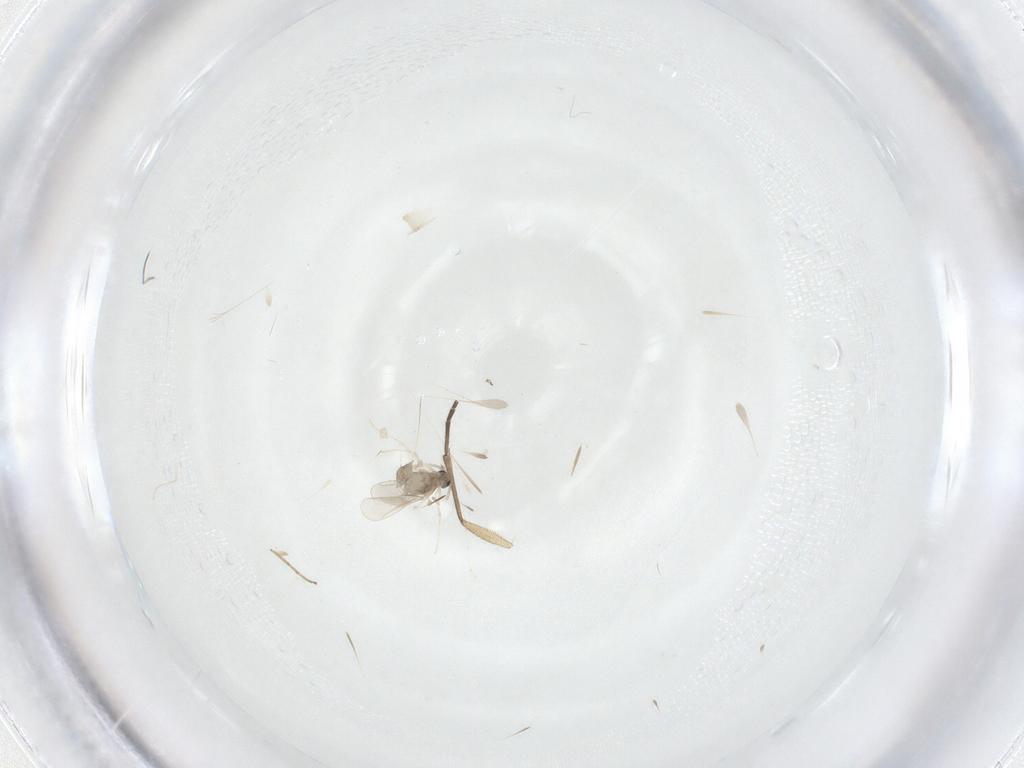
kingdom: Animalia
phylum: Arthropoda
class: Insecta
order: Diptera
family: Cecidomyiidae
